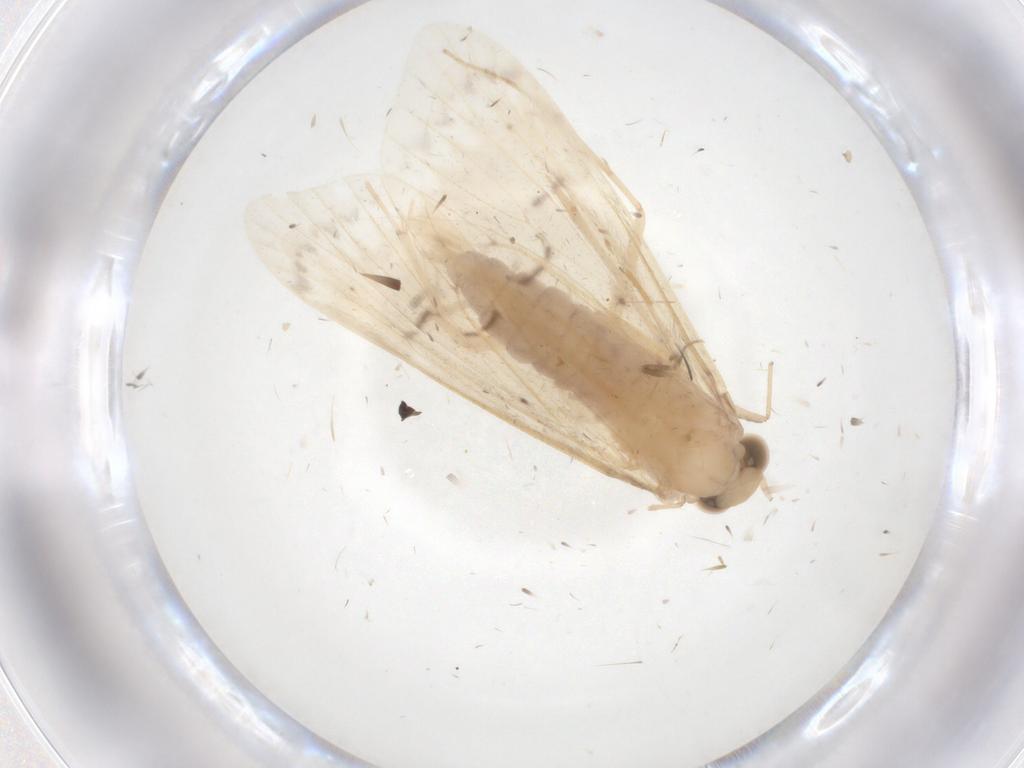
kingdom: Animalia
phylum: Arthropoda
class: Insecta
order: Trichoptera
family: Hydropsychidae
